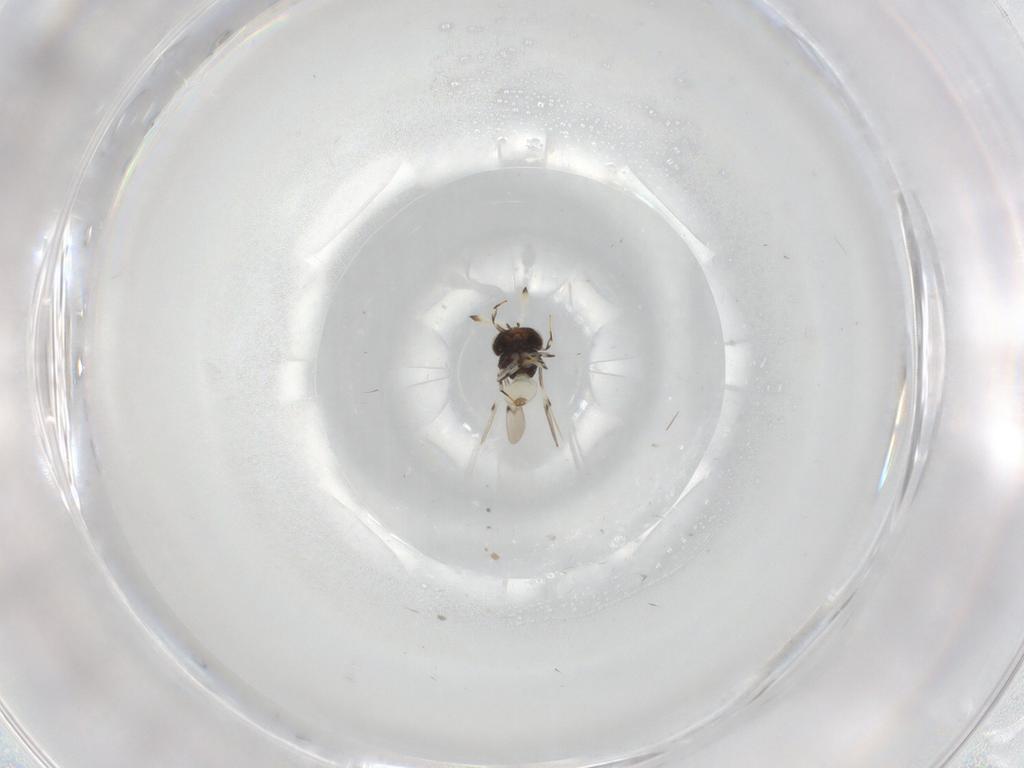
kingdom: Animalia
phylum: Arthropoda
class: Insecta
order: Hymenoptera
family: Scelionidae
